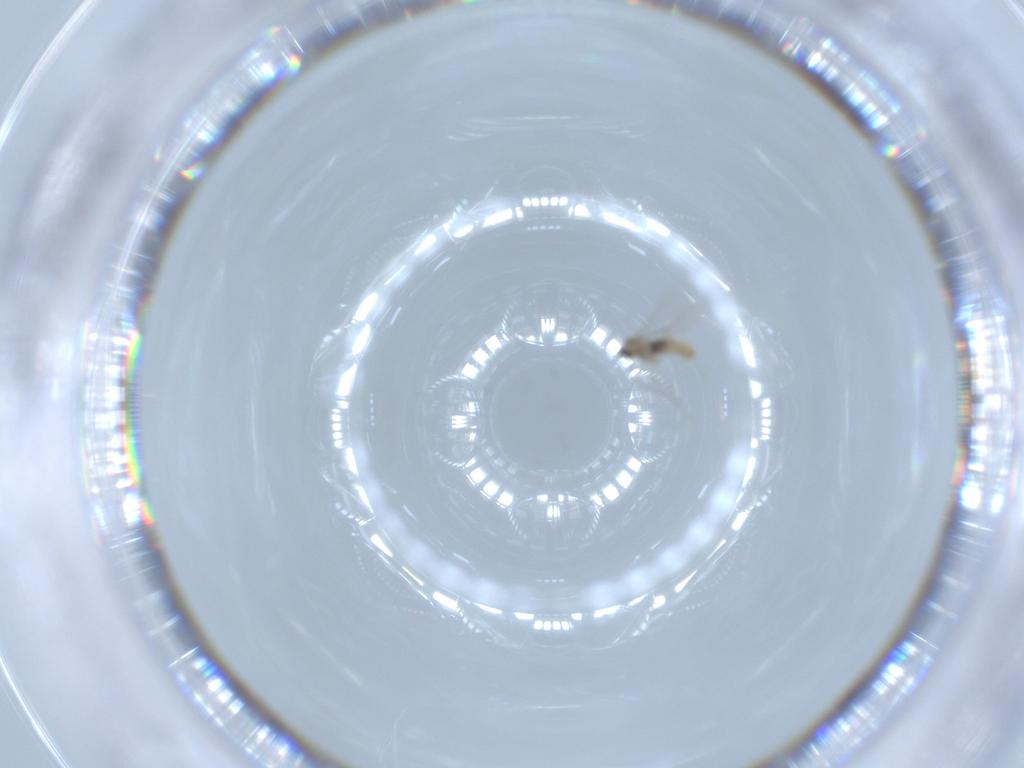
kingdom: Animalia
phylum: Arthropoda
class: Insecta
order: Diptera
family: Cecidomyiidae
